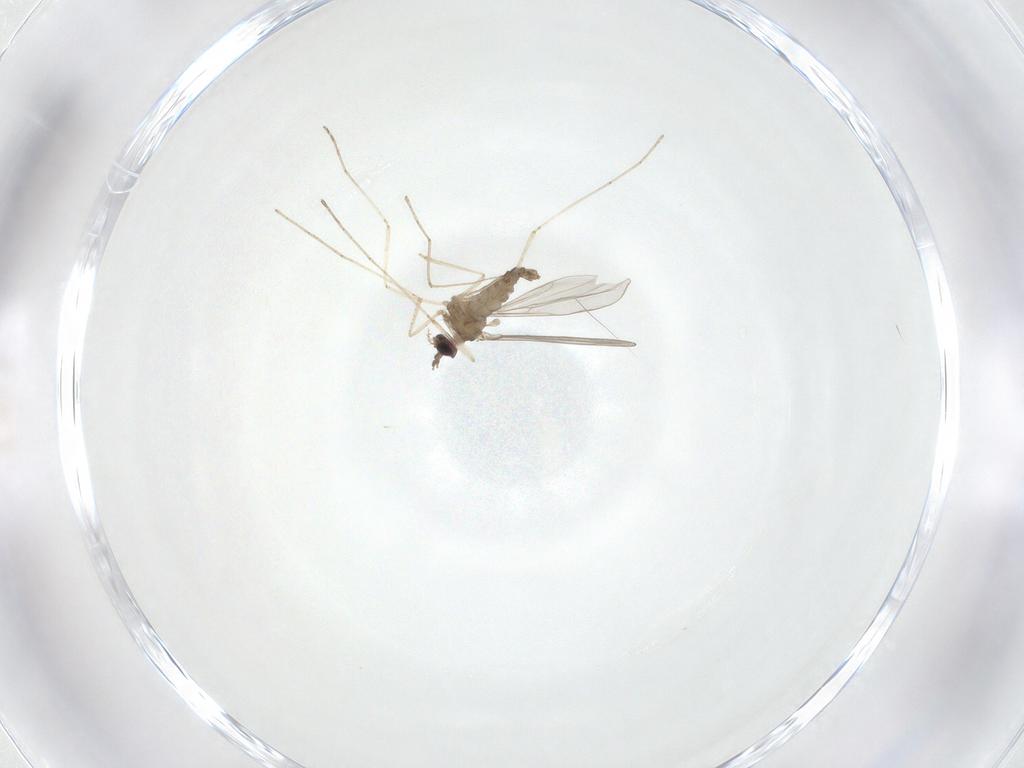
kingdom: Animalia
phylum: Arthropoda
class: Insecta
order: Diptera
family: Cecidomyiidae
